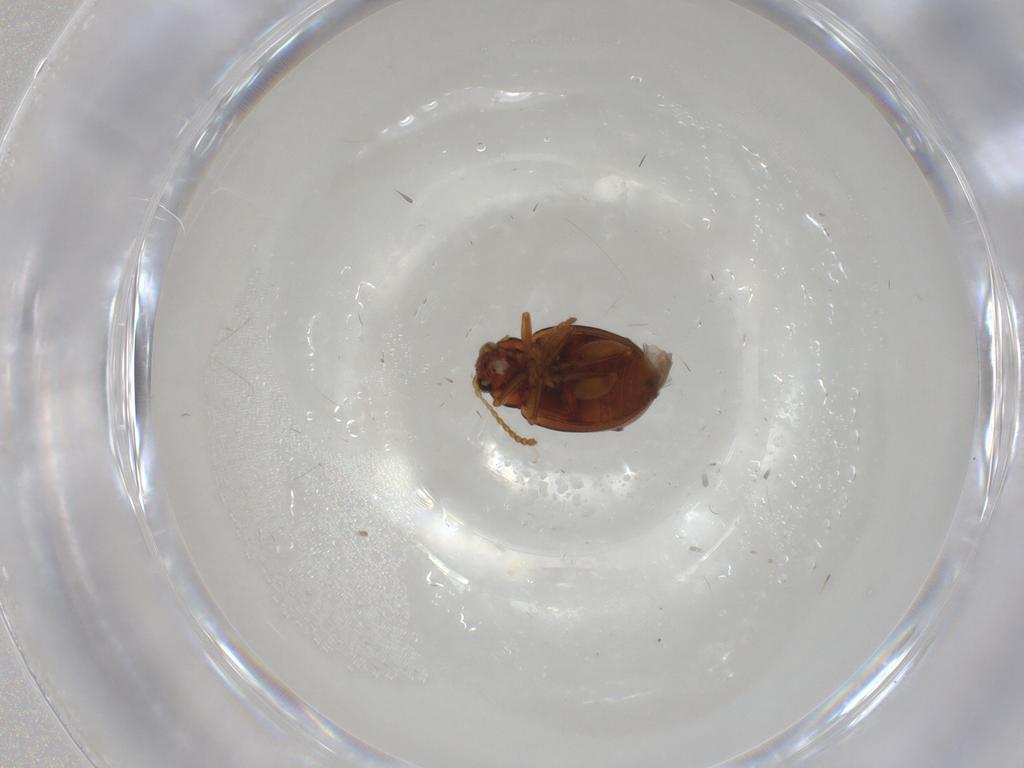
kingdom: Animalia
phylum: Arthropoda
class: Insecta
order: Coleoptera
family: Chrysomelidae
